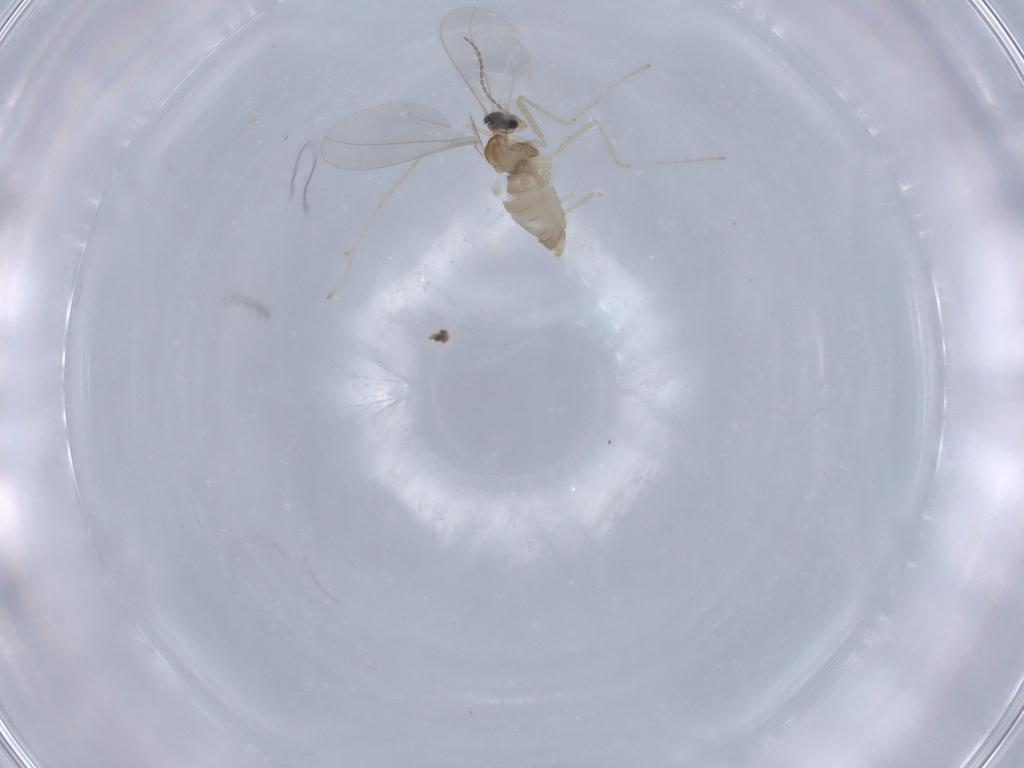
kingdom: Animalia
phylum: Arthropoda
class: Insecta
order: Diptera
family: Cecidomyiidae
